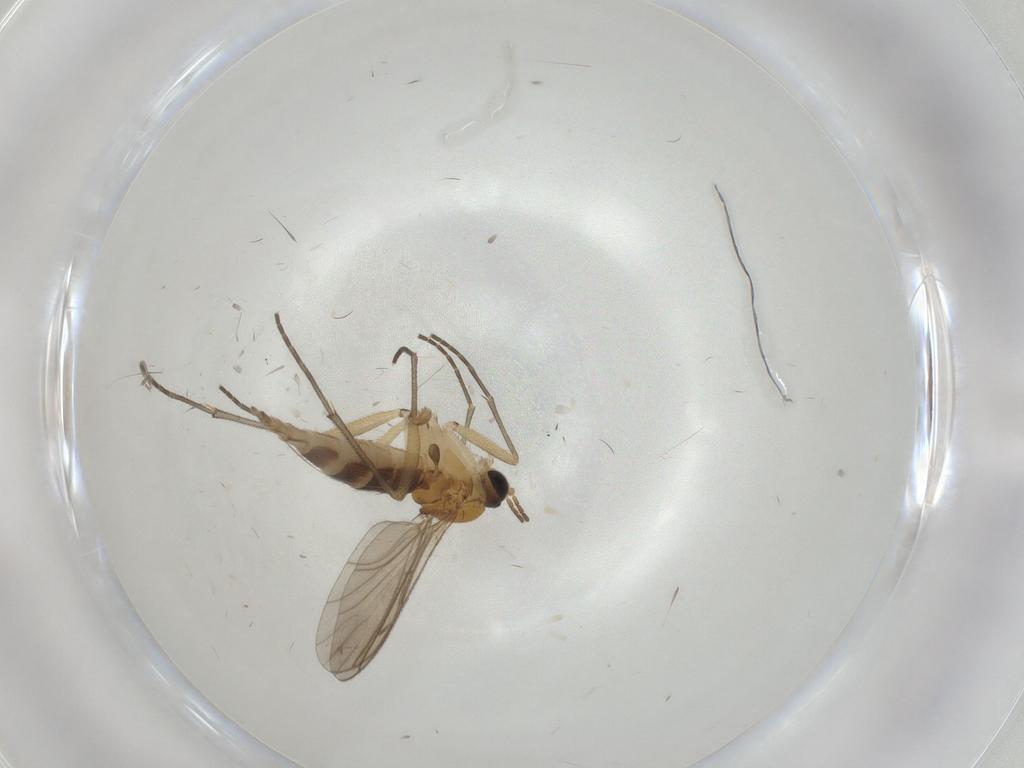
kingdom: Animalia
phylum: Arthropoda
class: Insecta
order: Diptera
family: Sciaridae
